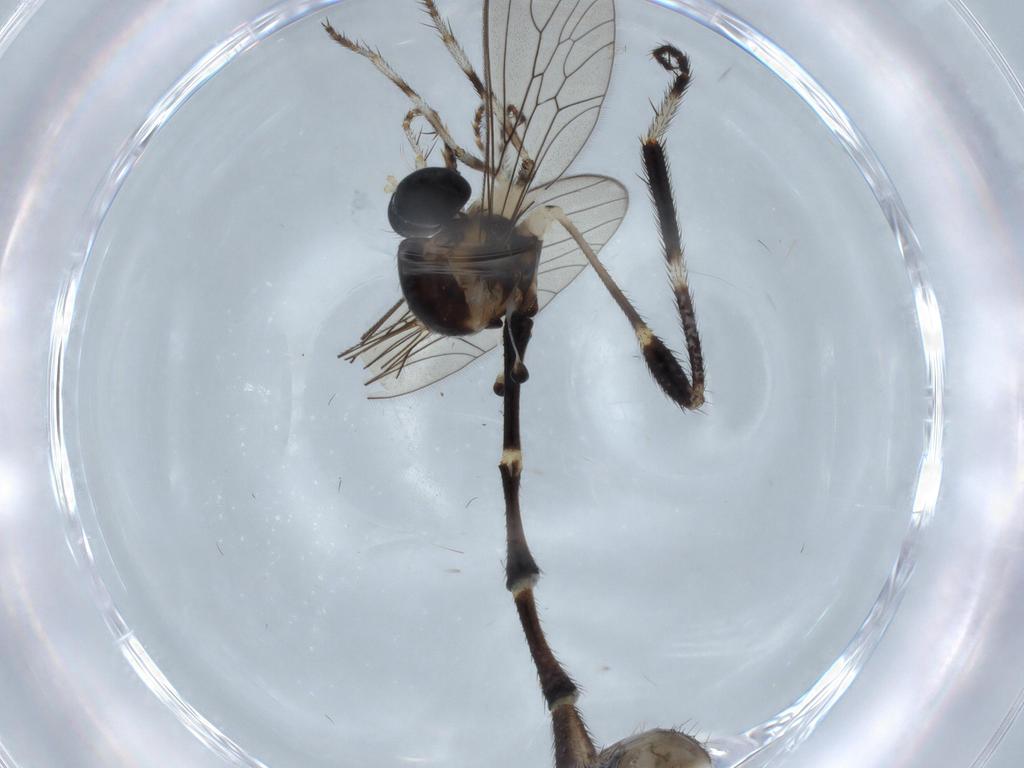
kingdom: Animalia
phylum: Arthropoda
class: Insecta
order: Diptera
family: Limoniidae
